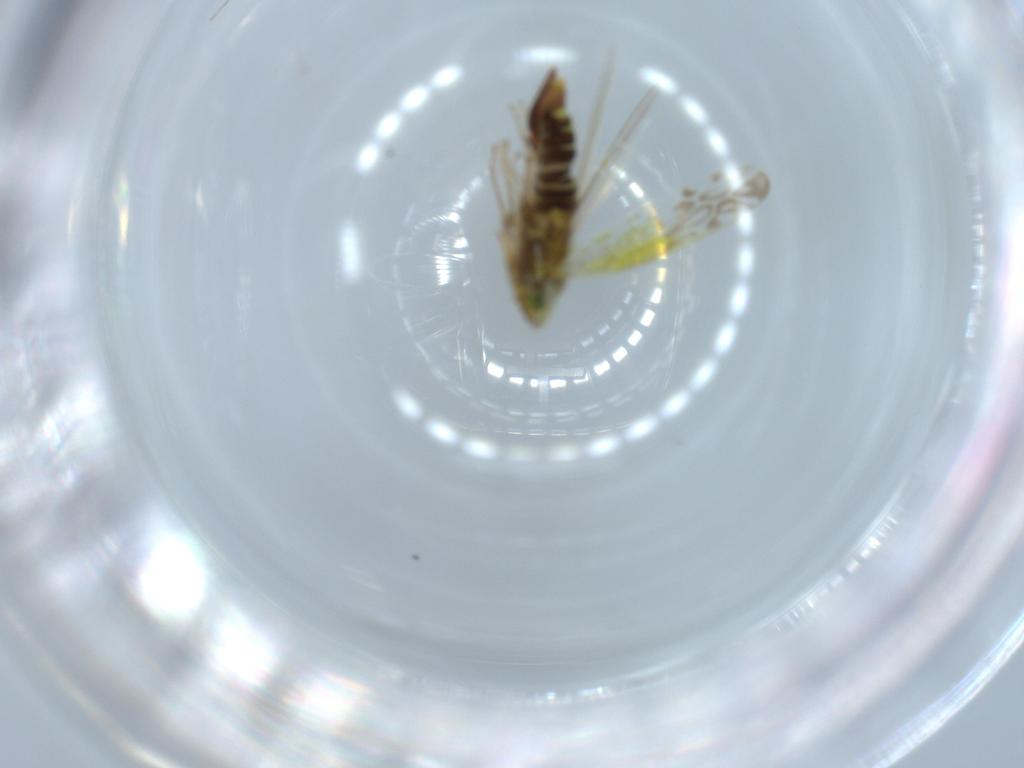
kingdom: Animalia
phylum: Arthropoda
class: Insecta
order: Hemiptera
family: Cicadellidae
